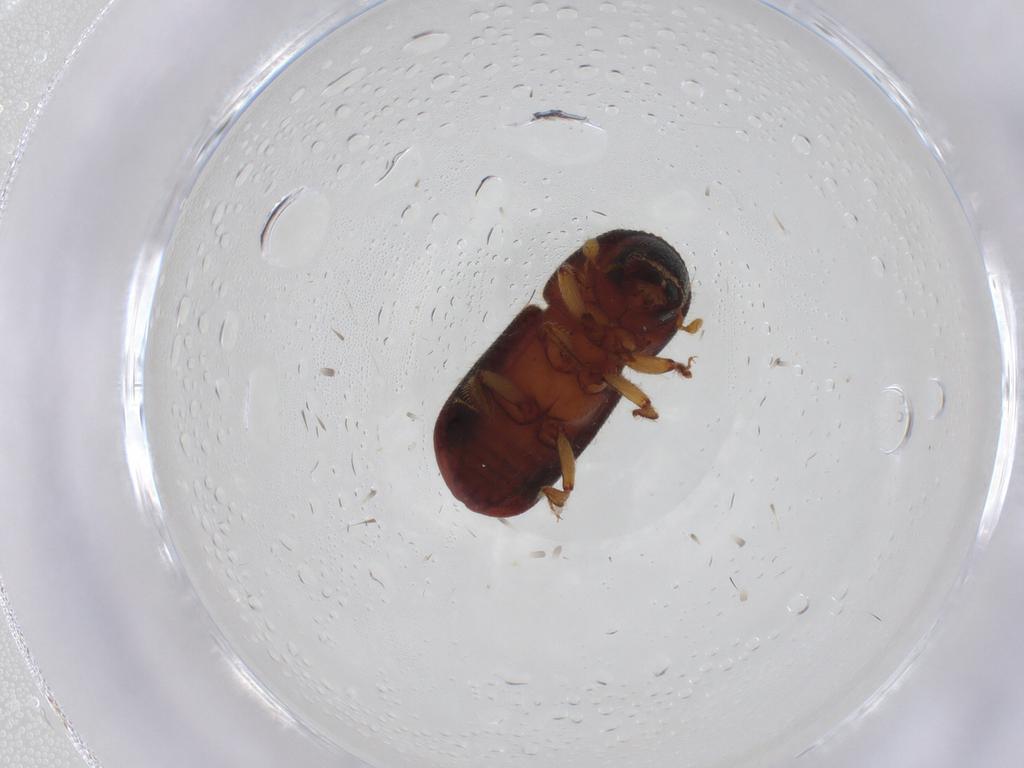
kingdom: Animalia
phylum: Arthropoda
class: Insecta
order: Coleoptera
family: Curculionidae
